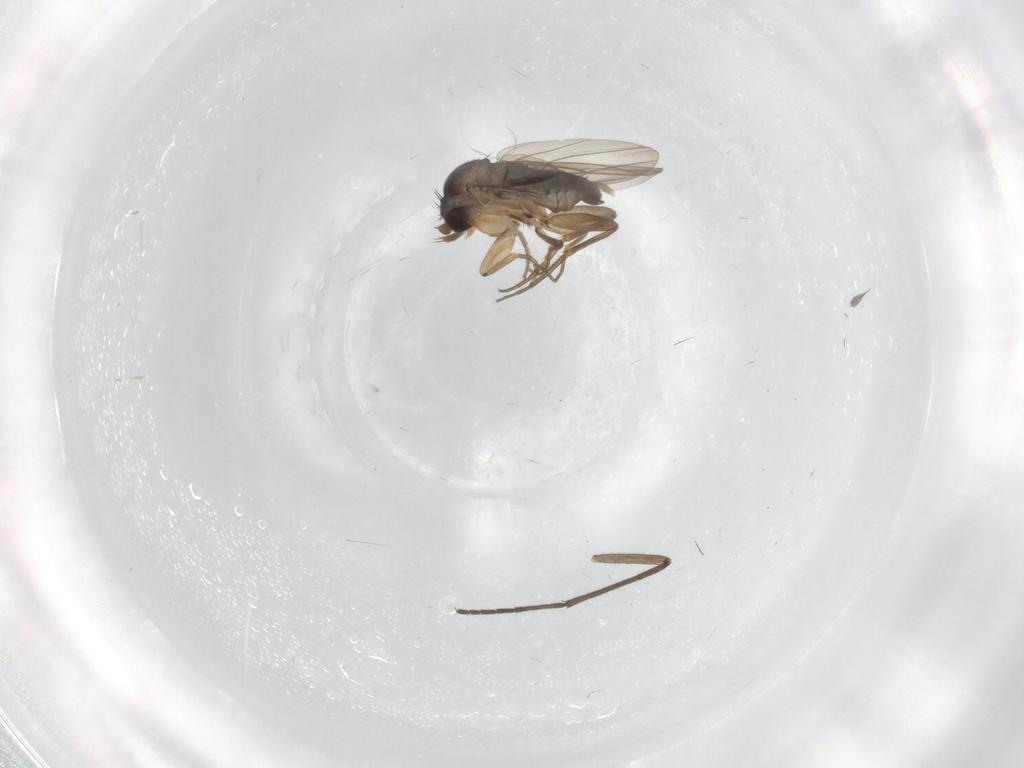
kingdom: Animalia
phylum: Arthropoda
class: Insecta
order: Diptera
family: Phoridae
